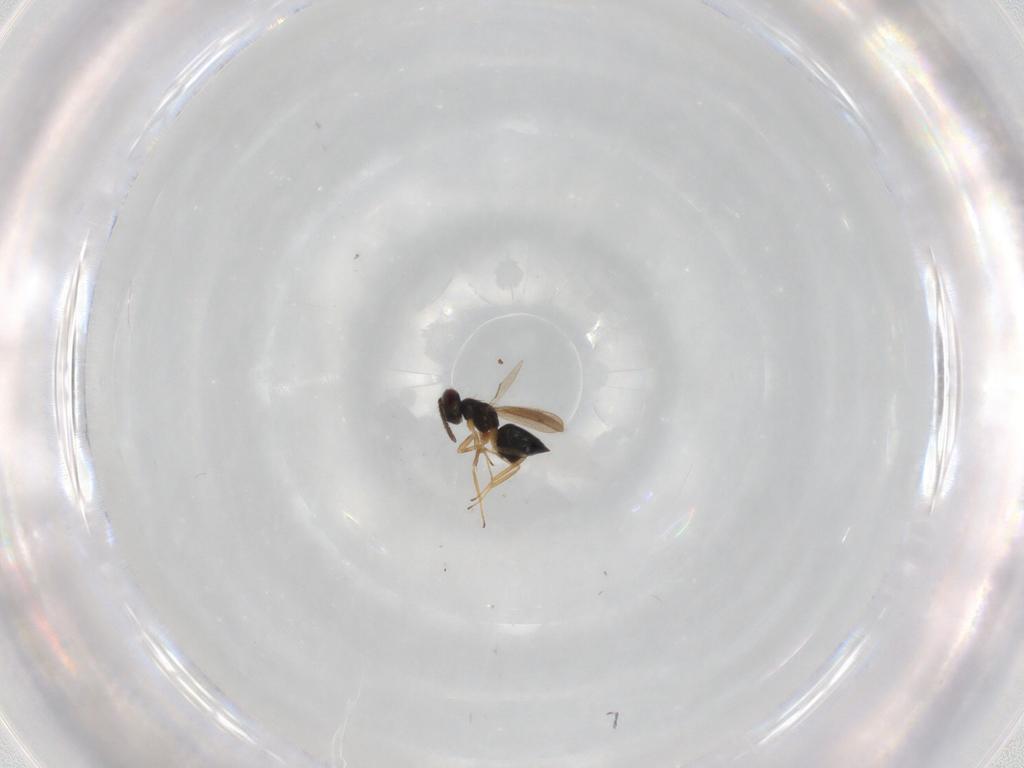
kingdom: Animalia
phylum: Arthropoda
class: Insecta
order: Hymenoptera
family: Tetracampidae
